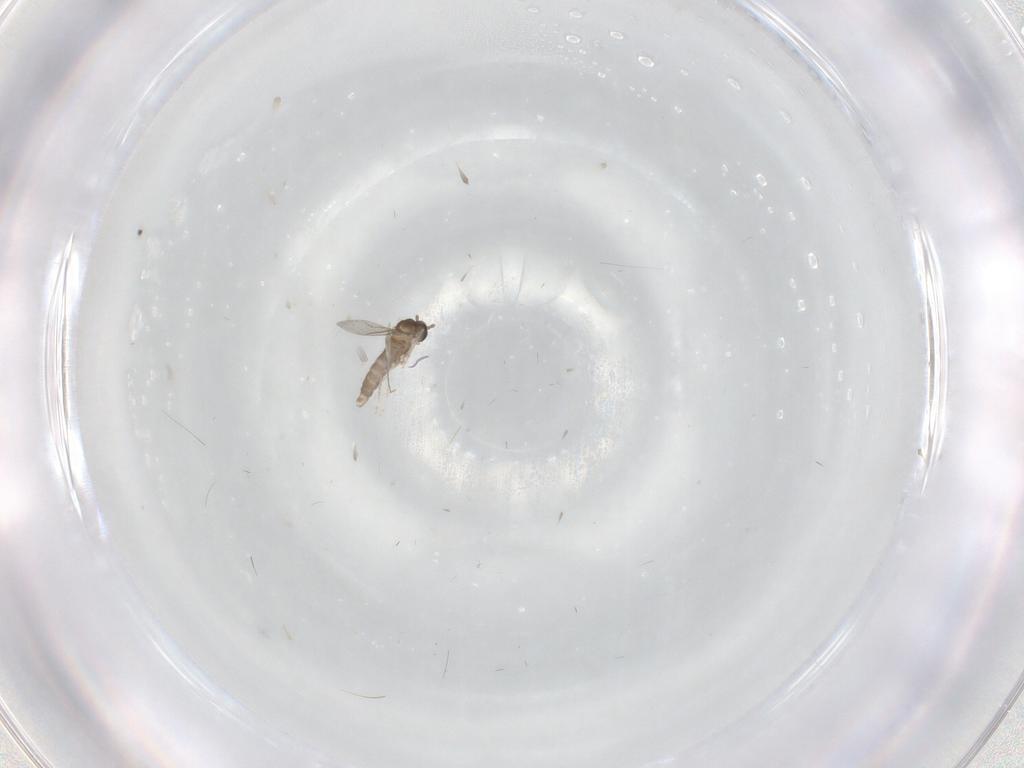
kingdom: Animalia
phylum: Arthropoda
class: Insecta
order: Diptera
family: Cecidomyiidae
